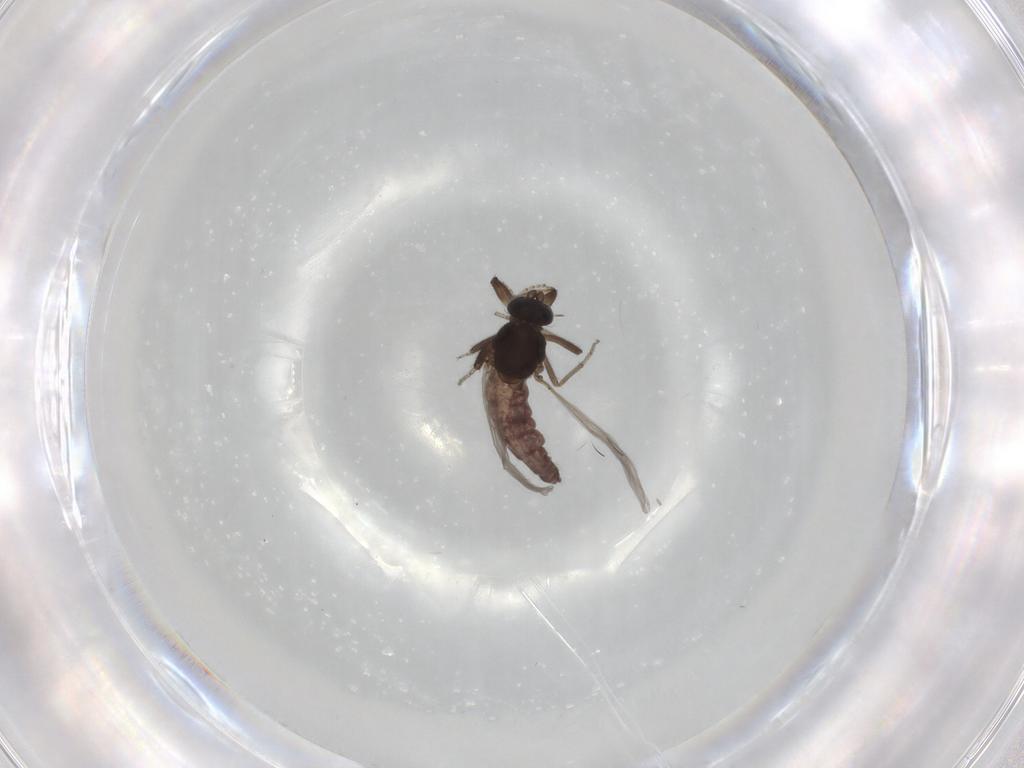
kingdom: Animalia
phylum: Arthropoda
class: Insecta
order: Diptera
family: Ceratopogonidae
